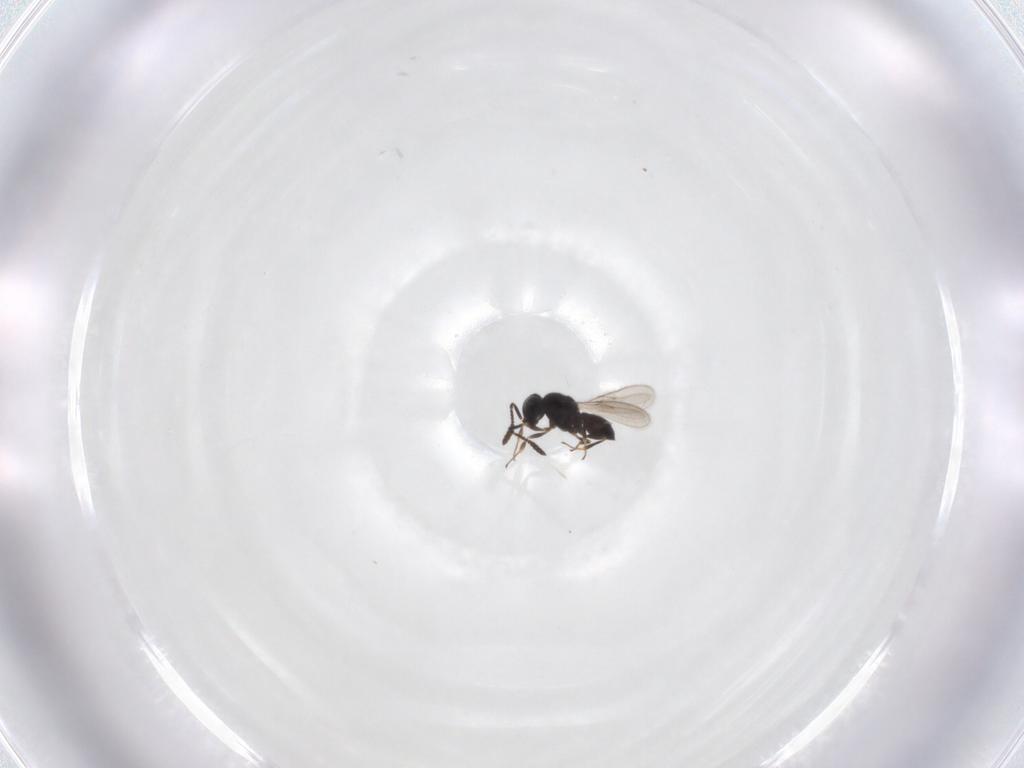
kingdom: Animalia
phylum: Arthropoda
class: Insecta
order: Hymenoptera
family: Scelionidae
